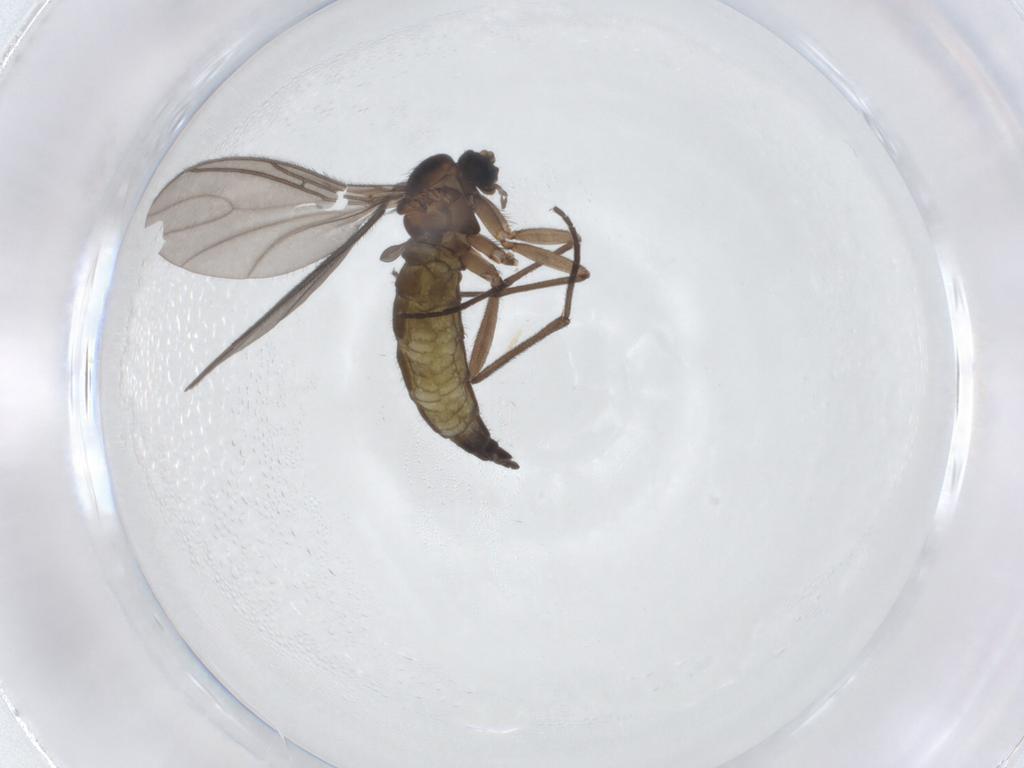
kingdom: Animalia
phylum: Arthropoda
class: Insecta
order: Diptera
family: Sciaridae
